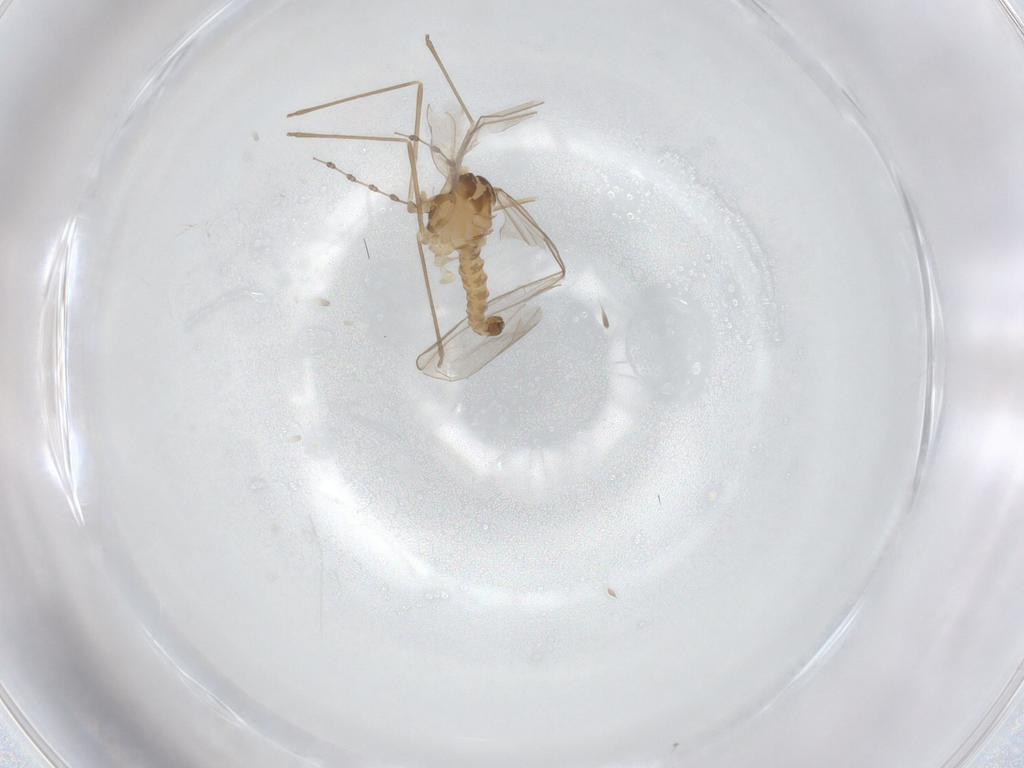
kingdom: Animalia
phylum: Arthropoda
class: Insecta
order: Diptera
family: Cecidomyiidae
